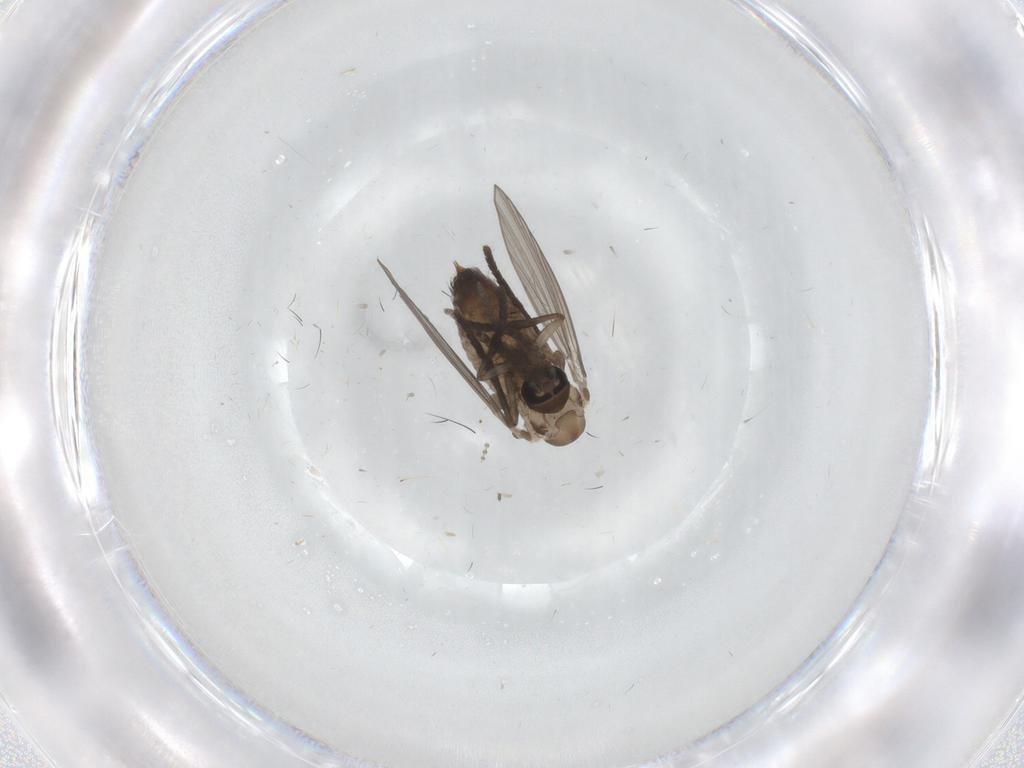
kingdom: Animalia
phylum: Arthropoda
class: Insecta
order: Diptera
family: Psychodidae
